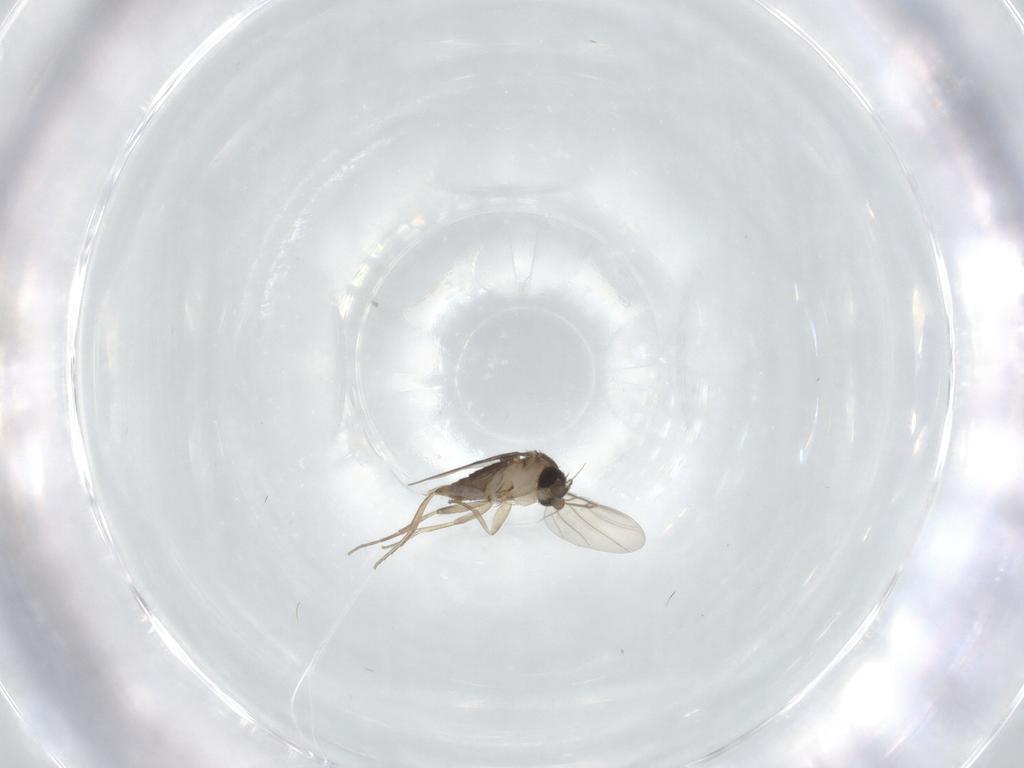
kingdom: Animalia
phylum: Arthropoda
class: Insecta
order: Diptera
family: Phoridae
